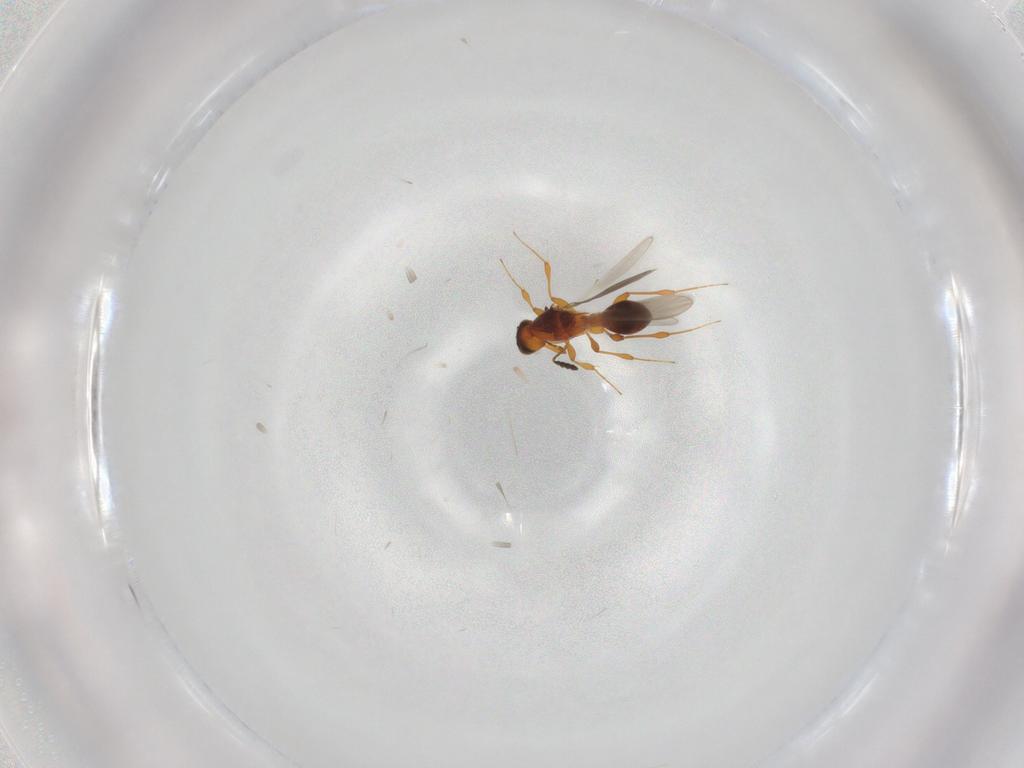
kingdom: Animalia
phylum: Arthropoda
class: Insecta
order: Hymenoptera
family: Platygastridae
